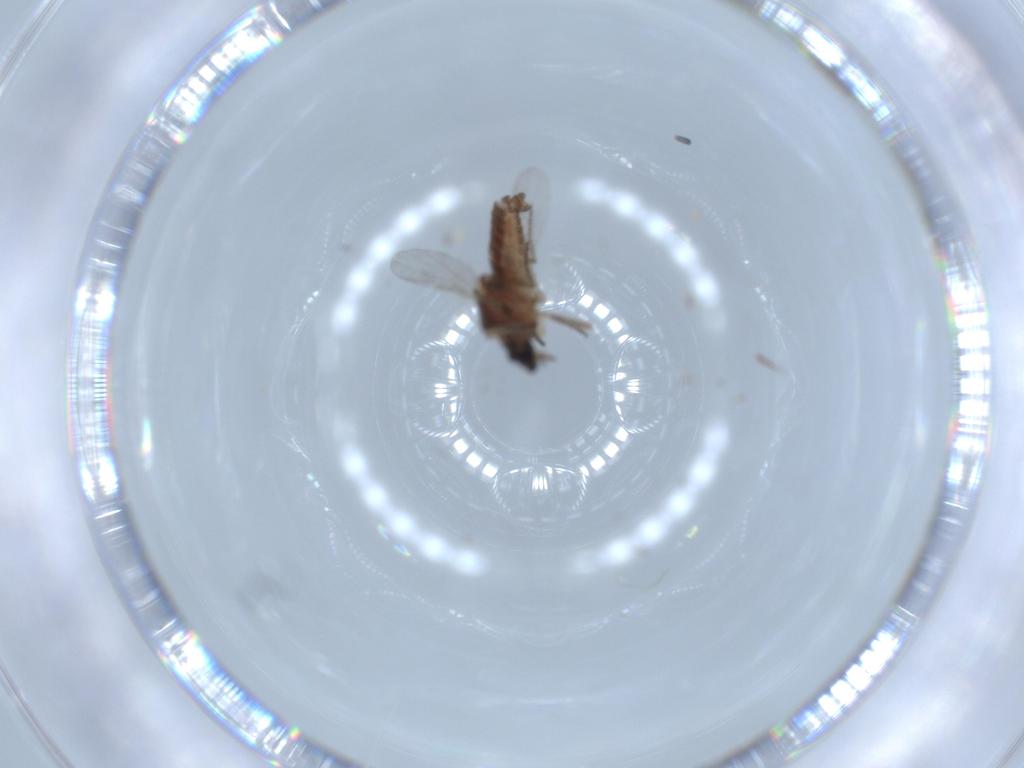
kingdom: Animalia
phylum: Arthropoda
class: Insecta
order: Diptera
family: Ceratopogonidae
